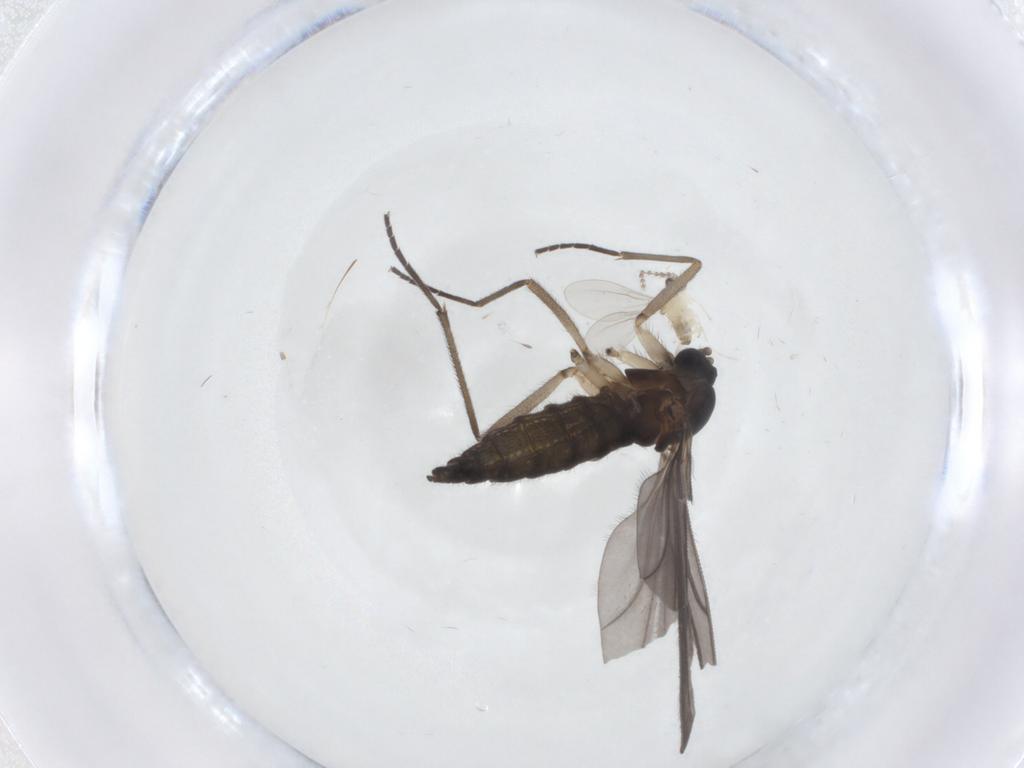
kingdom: Animalia
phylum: Arthropoda
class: Insecta
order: Diptera
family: Sciaridae
